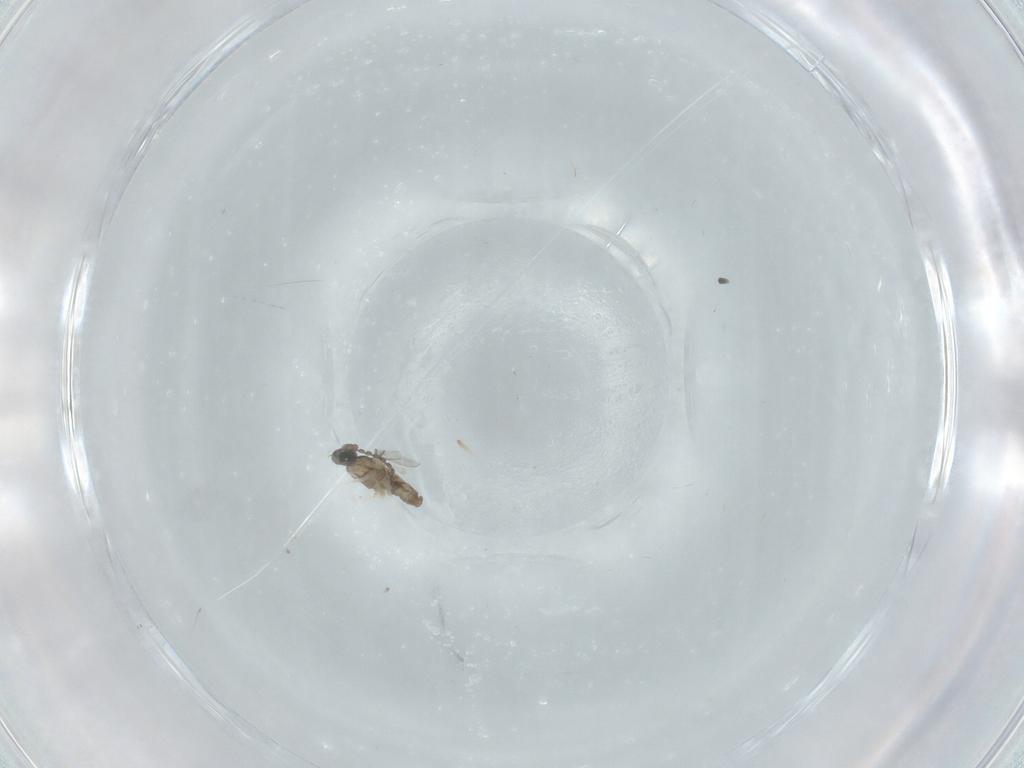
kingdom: Animalia
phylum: Arthropoda
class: Insecta
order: Diptera
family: Cecidomyiidae
